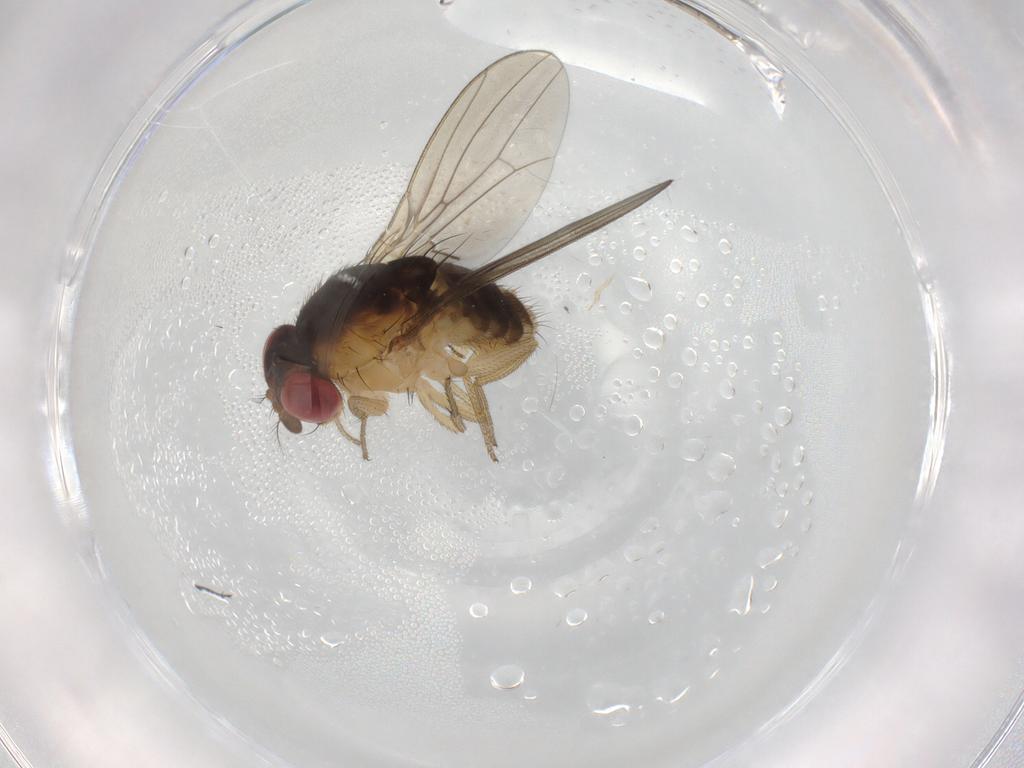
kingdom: Animalia
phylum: Arthropoda
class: Insecta
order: Diptera
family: Drosophilidae
